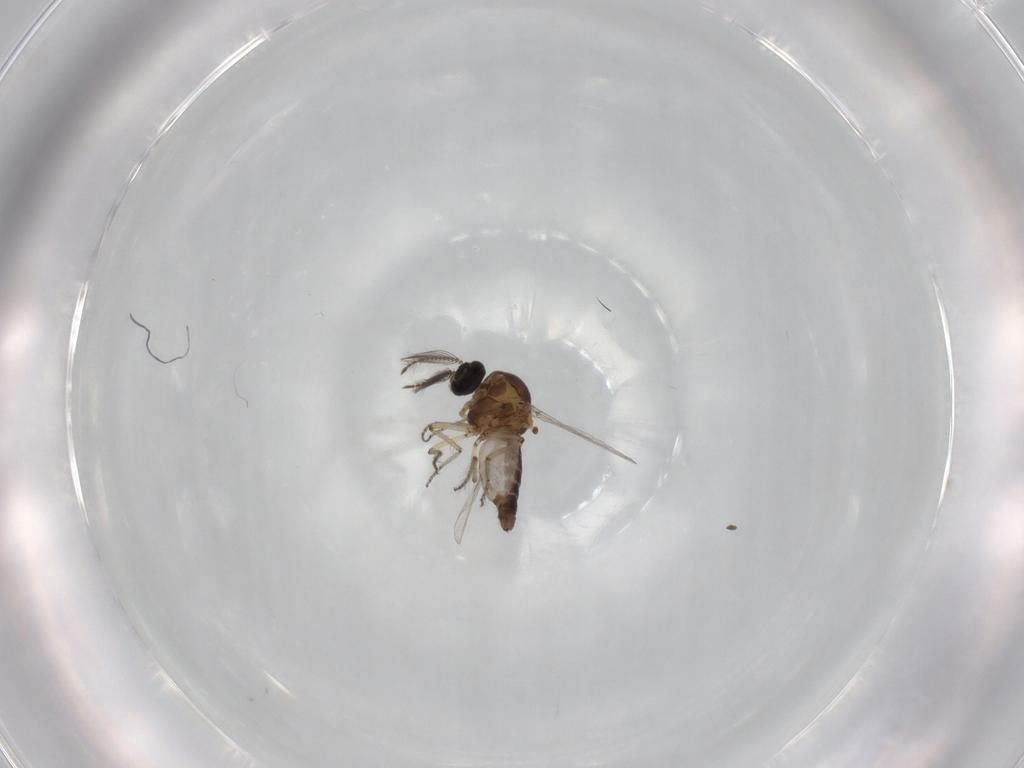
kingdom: Animalia
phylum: Arthropoda
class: Insecta
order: Diptera
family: Ceratopogonidae
